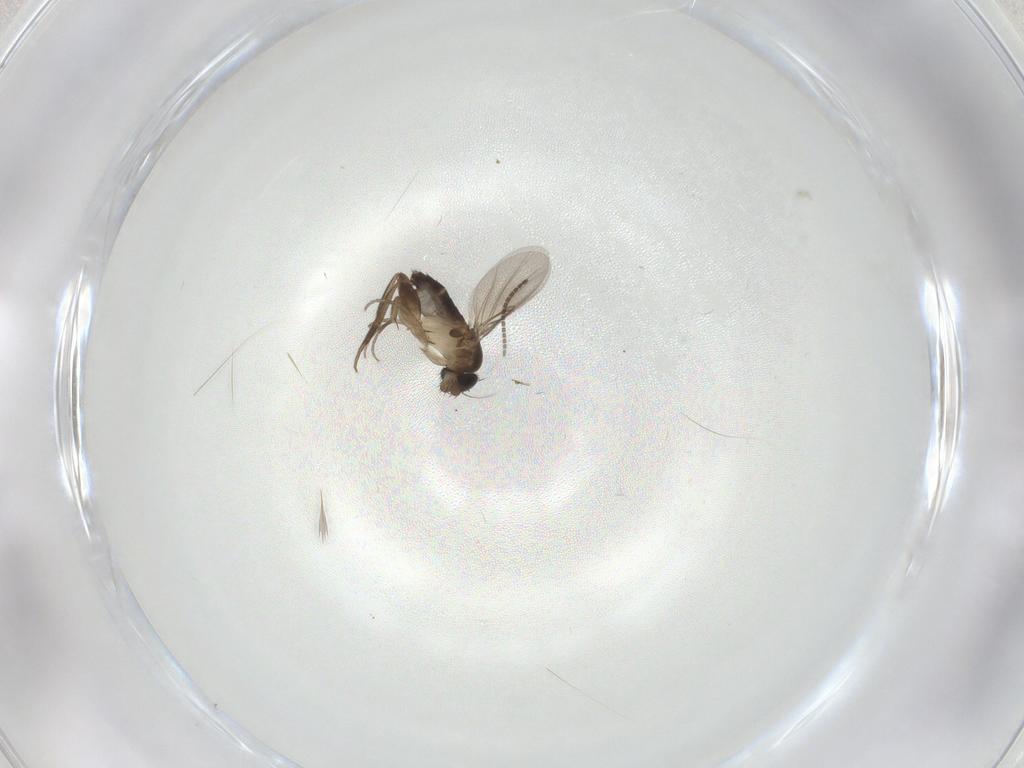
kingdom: Animalia
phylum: Arthropoda
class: Insecta
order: Diptera
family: Phoridae
